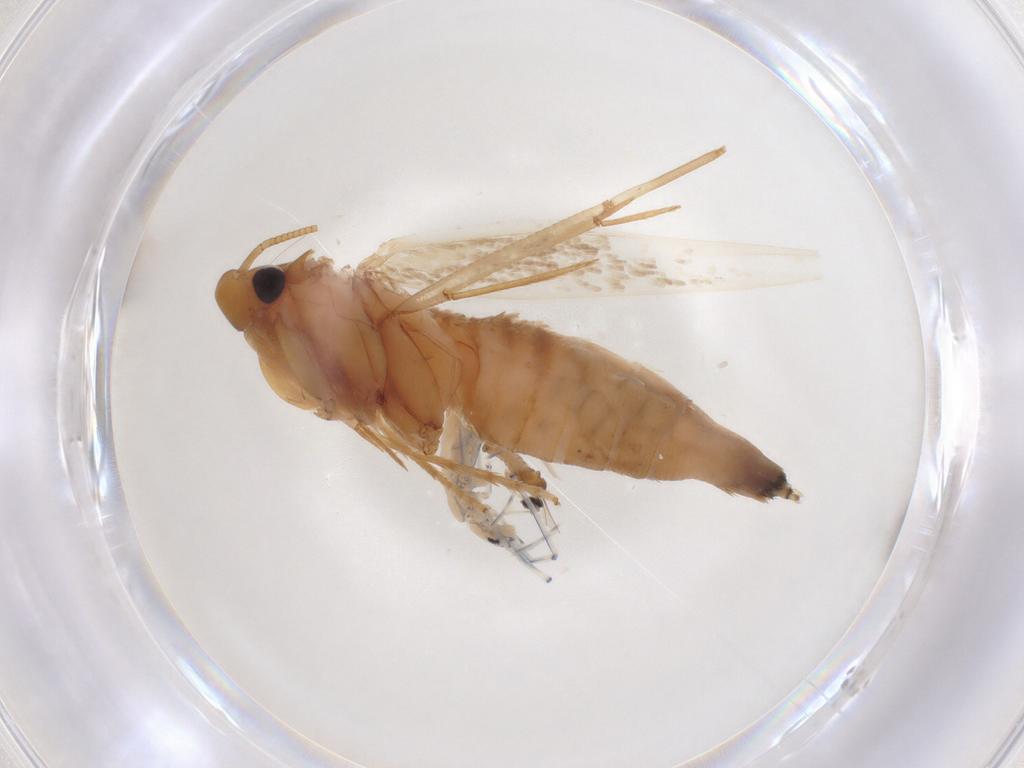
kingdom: Animalia
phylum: Arthropoda
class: Insecta
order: Lepidoptera
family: Tineidae
